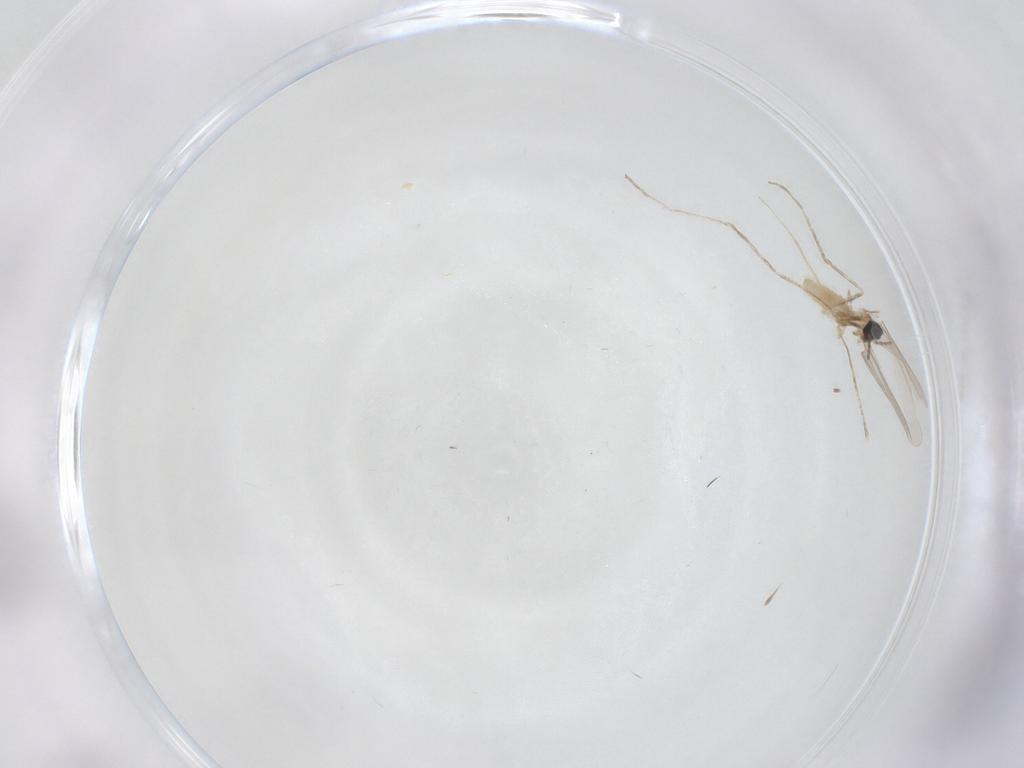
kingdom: Animalia
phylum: Arthropoda
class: Insecta
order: Diptera
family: Cecidomyiidae
